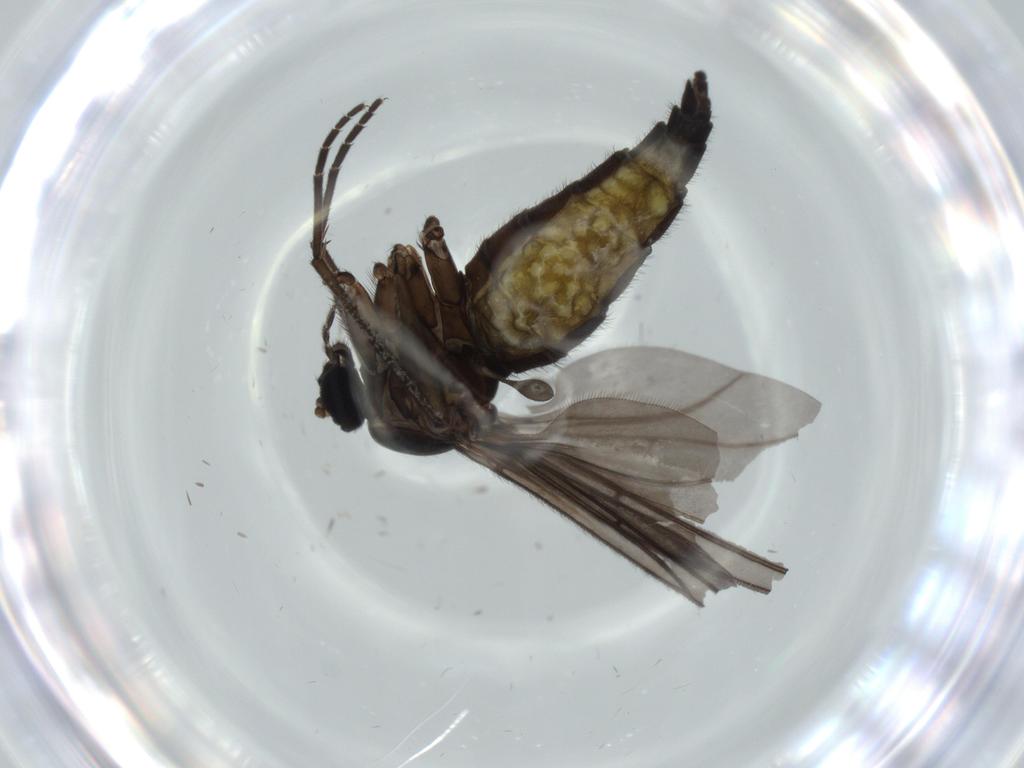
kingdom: Animalia
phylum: Arthropoda
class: Insecta
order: Diptera
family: Sciaridae
